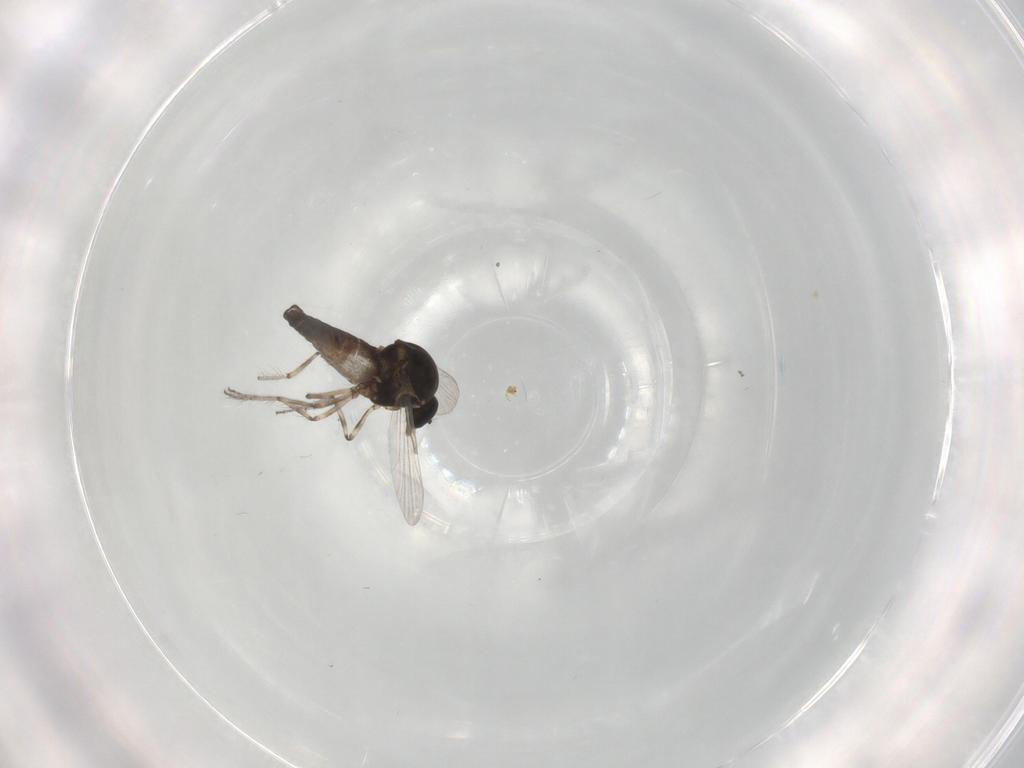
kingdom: Animalia
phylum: Arthropoda
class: Insecta
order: Diptera
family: Ceratopogonidae
